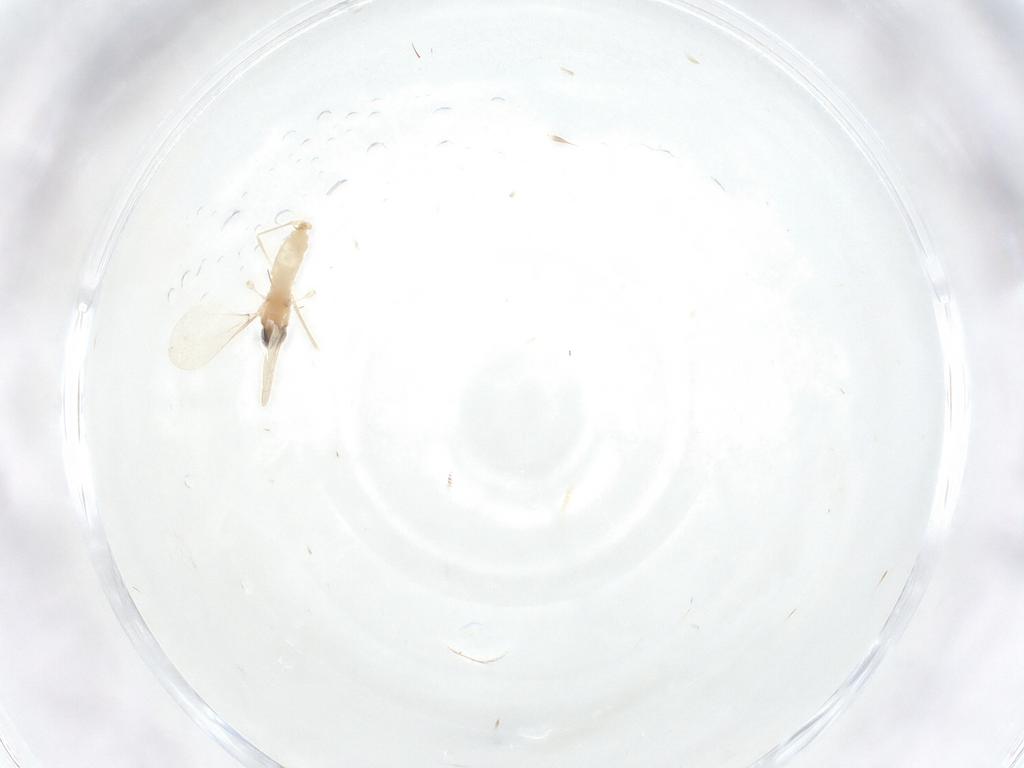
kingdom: Animalia
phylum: Arthropoda
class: Insecta
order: Diptera
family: Cecidomyiidae
